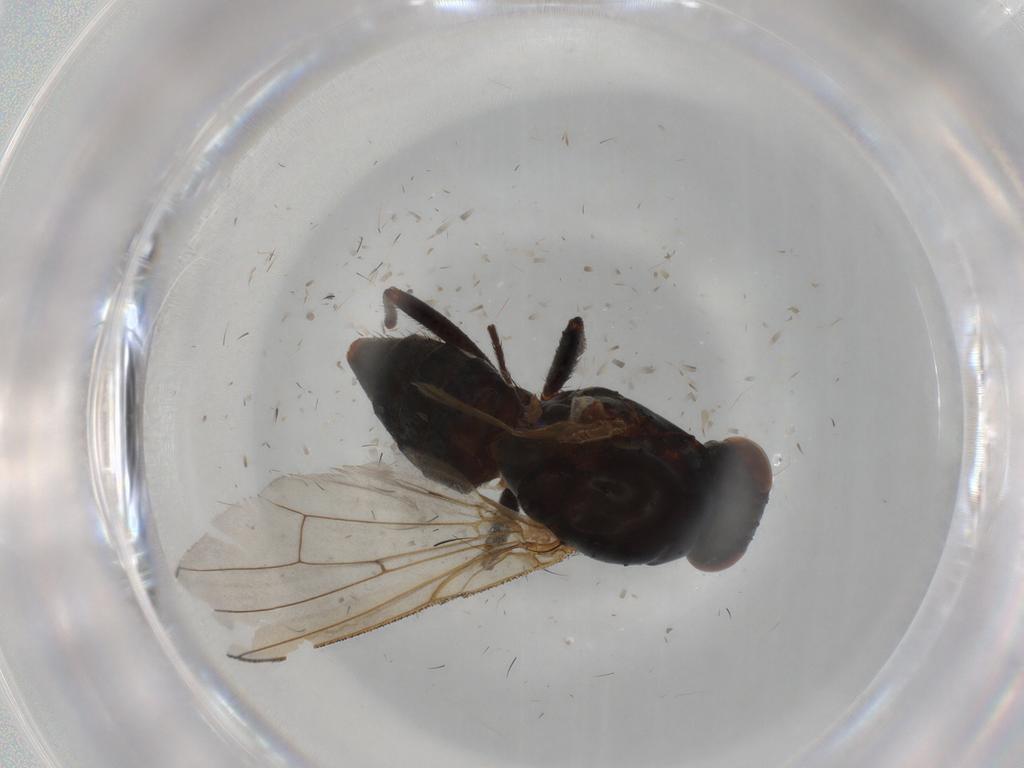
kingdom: Animalia
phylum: Arthropoda
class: Insecta
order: Diptera
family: Anthomyiidae
